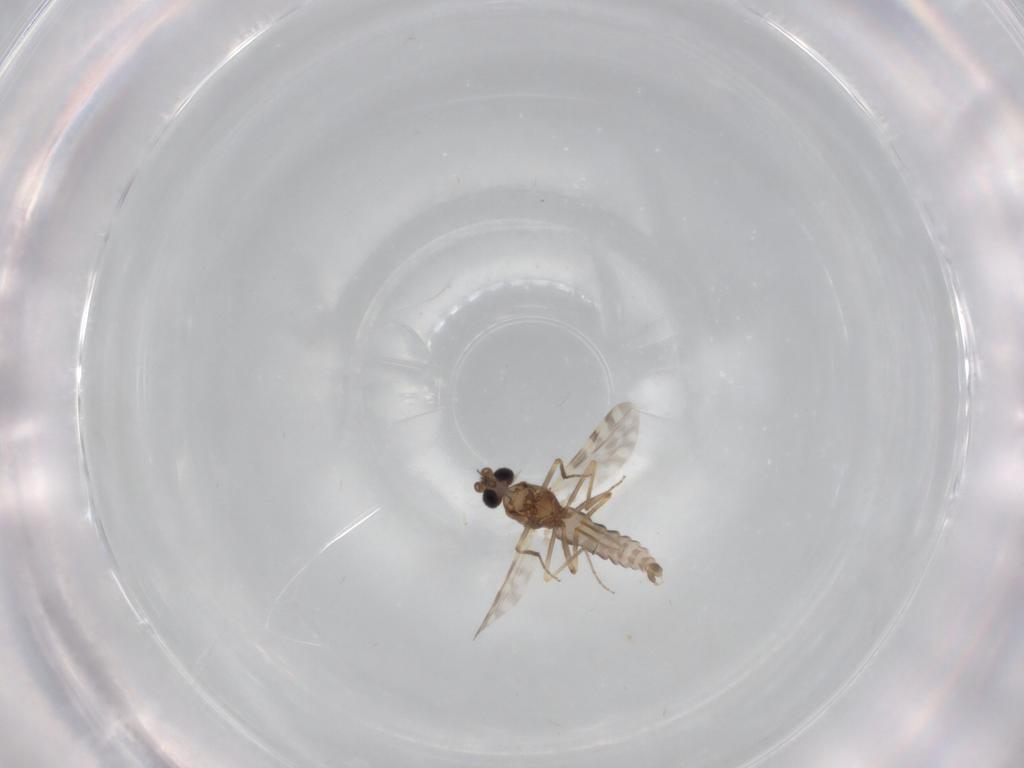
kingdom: Animalia
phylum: Arthropoda
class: Insecta
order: Diptera
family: Ceratopogonidae
